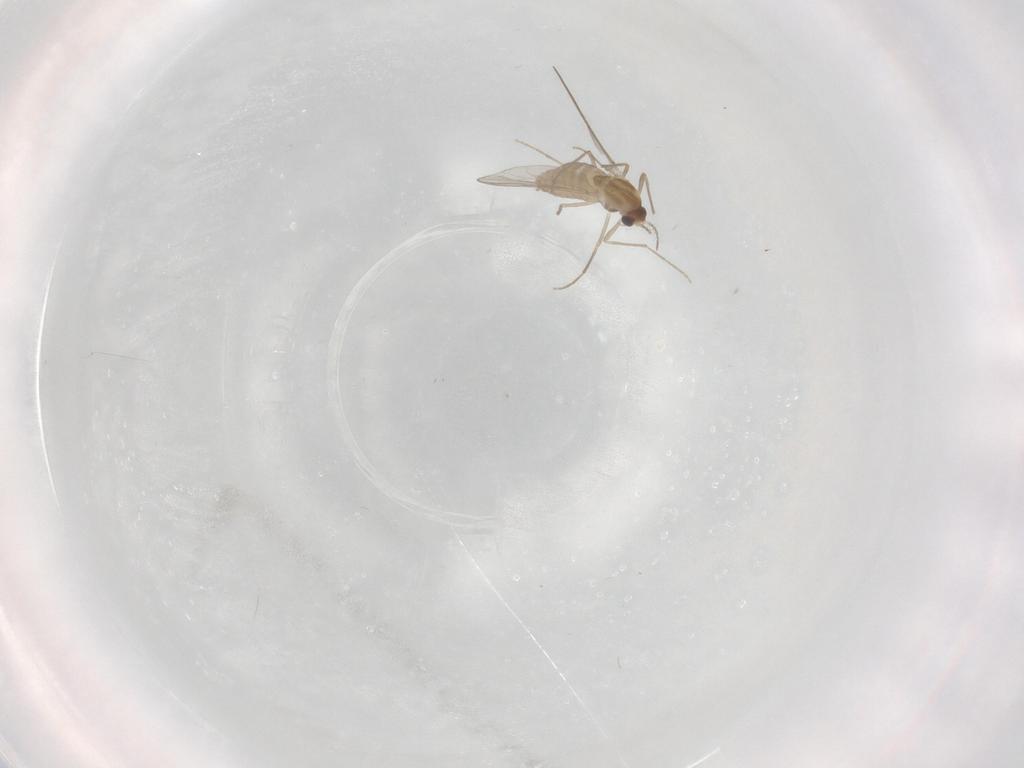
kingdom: Animalia
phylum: Arthropoda
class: Insecta
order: Diptera
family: Chironomidae
